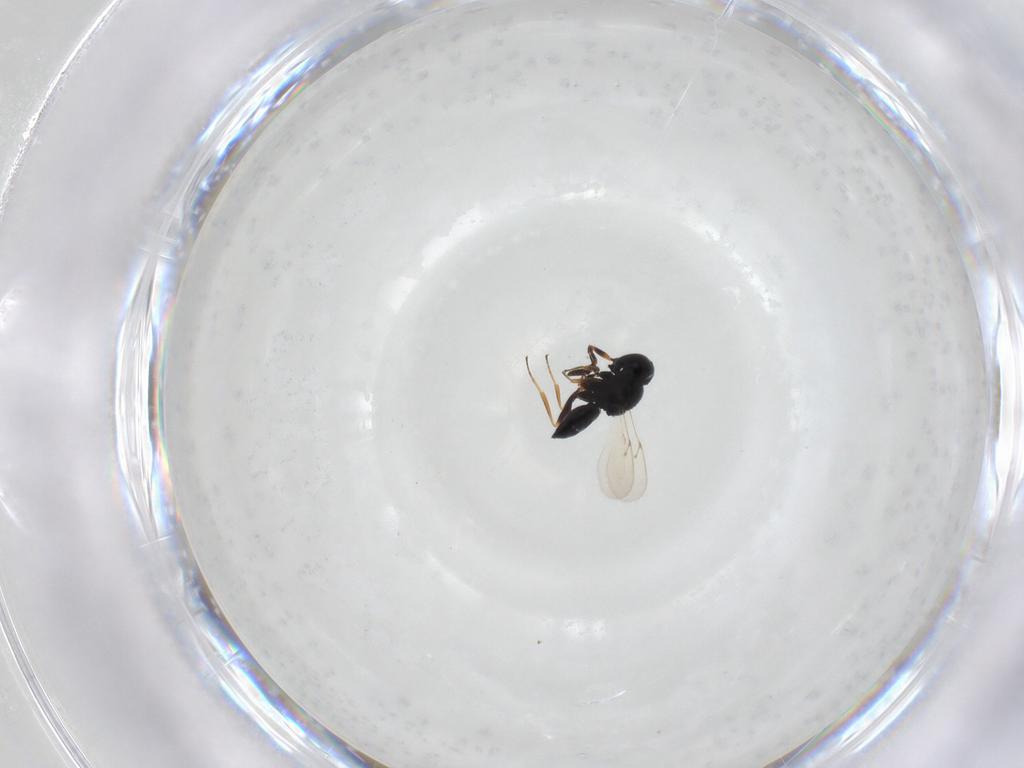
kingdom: Animalia
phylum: Arthropoda
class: Insecta
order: Hymenoptera
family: Scelionidae
